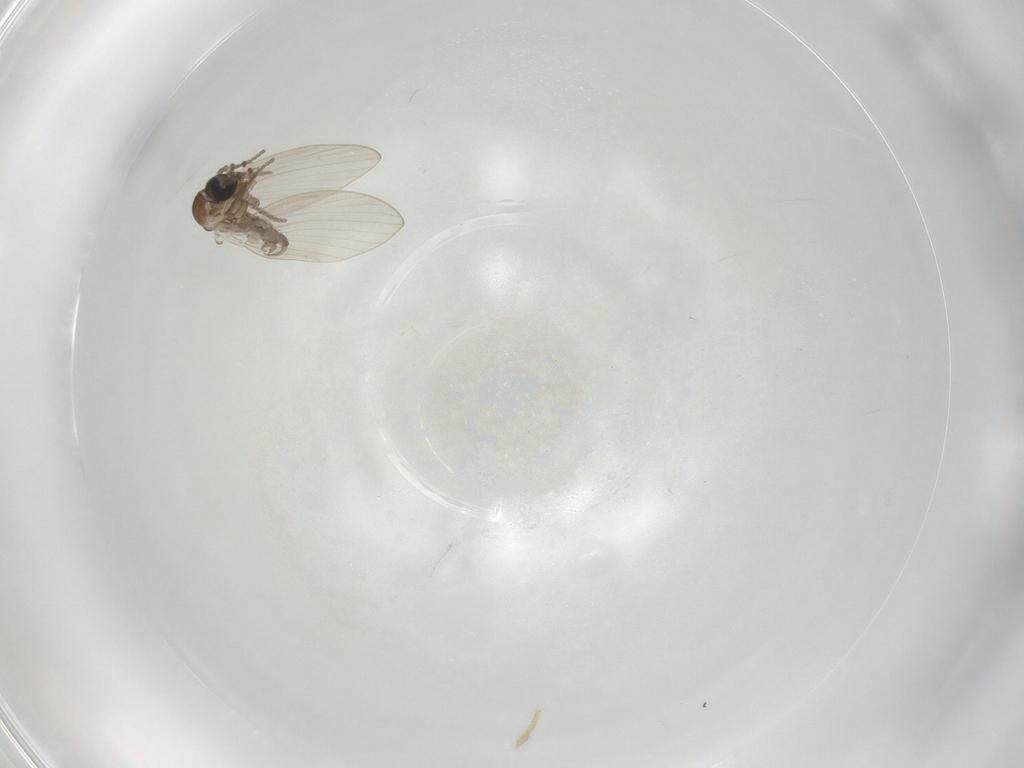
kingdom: Animalia
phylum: Arthropoda
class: Insecta
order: Diptera
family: Psychodidae
